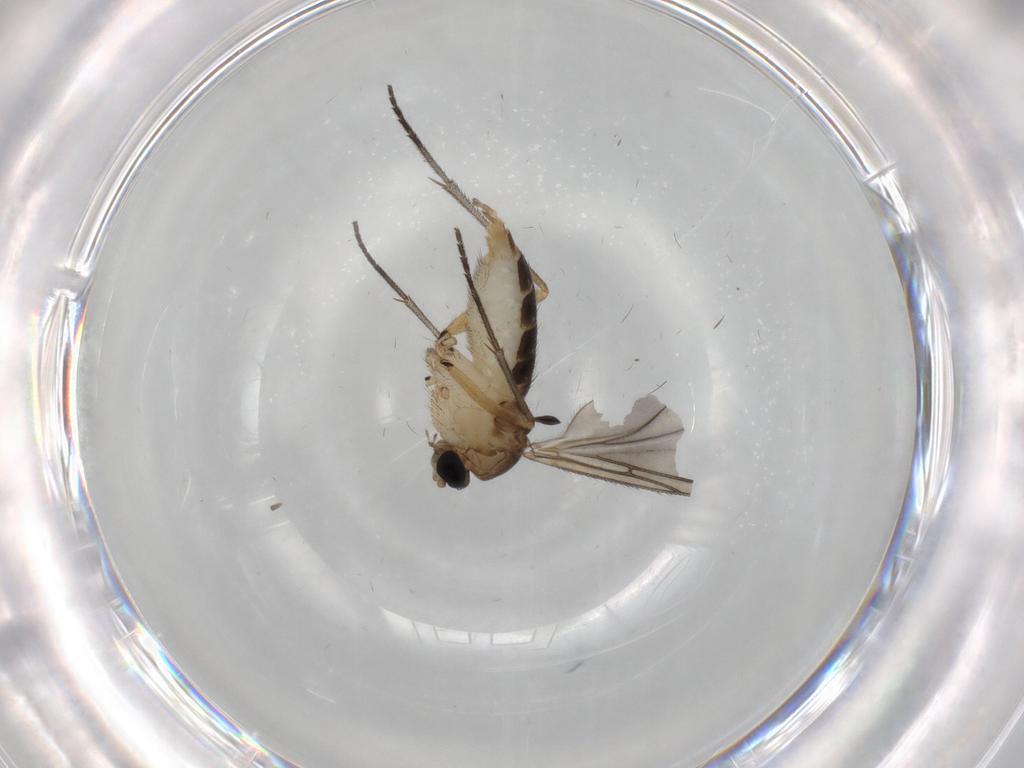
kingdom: Animalia
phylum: Arthropoda
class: Insecta
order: Diptera
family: Sciaridae
